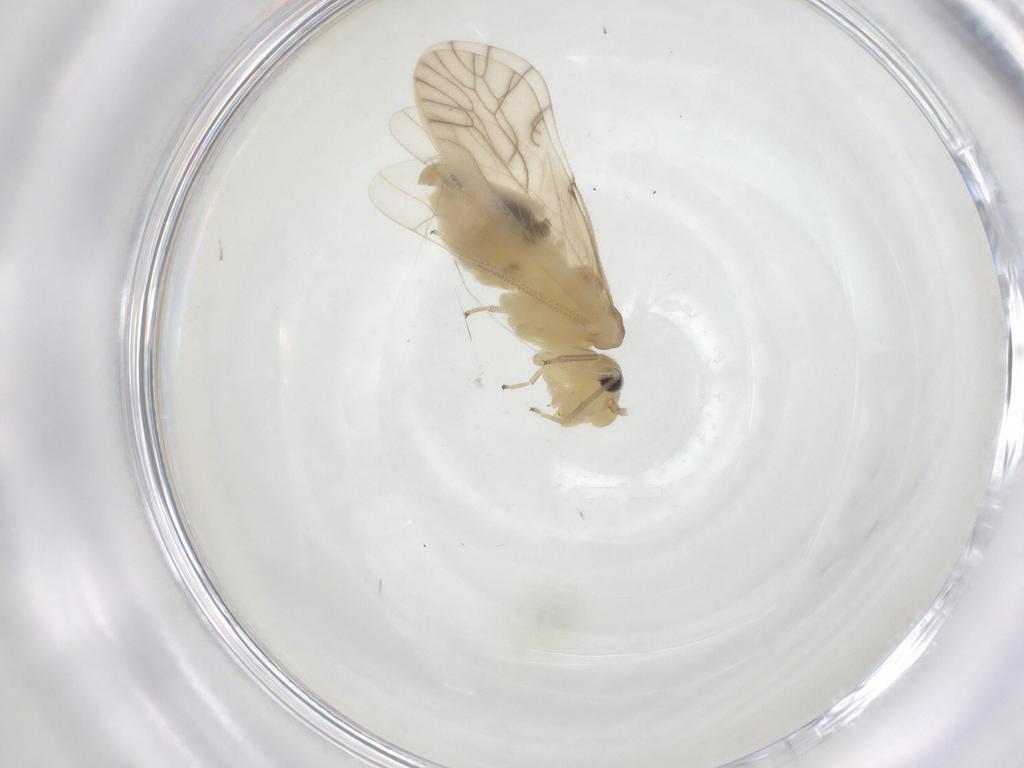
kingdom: Animalia
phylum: Arthropoda
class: Insecta
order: Psocodea
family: Caeciliusidae
